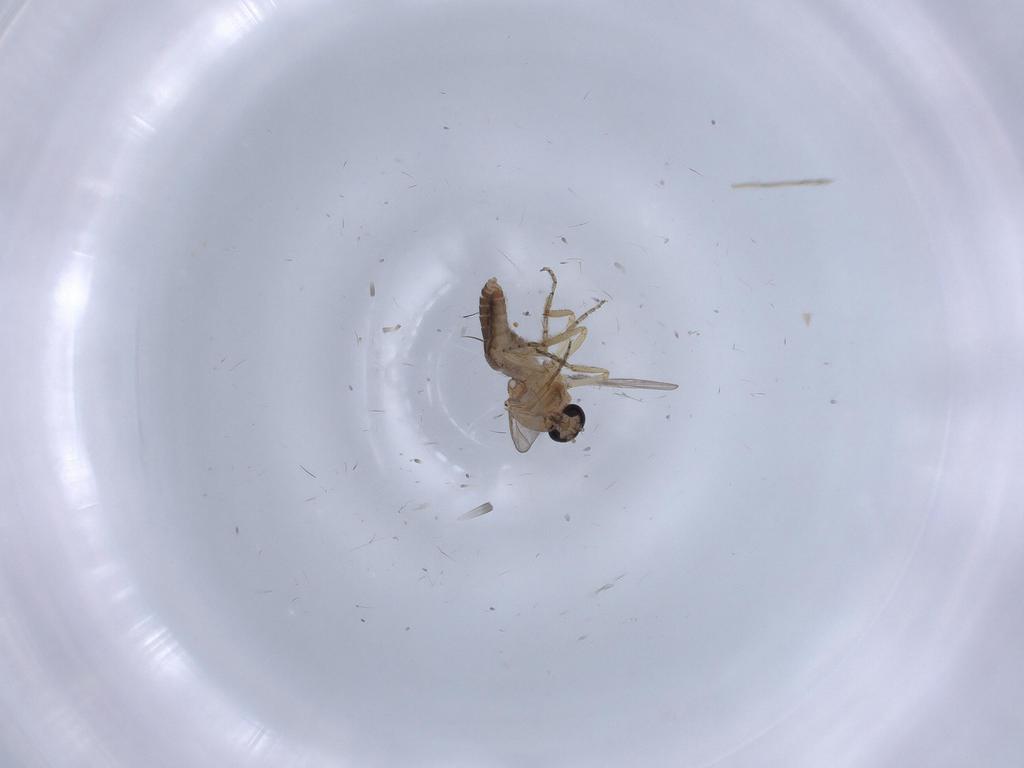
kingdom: Animalia
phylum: Arthropoda
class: Insecta
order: Diptera
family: Ceratopogonidae
